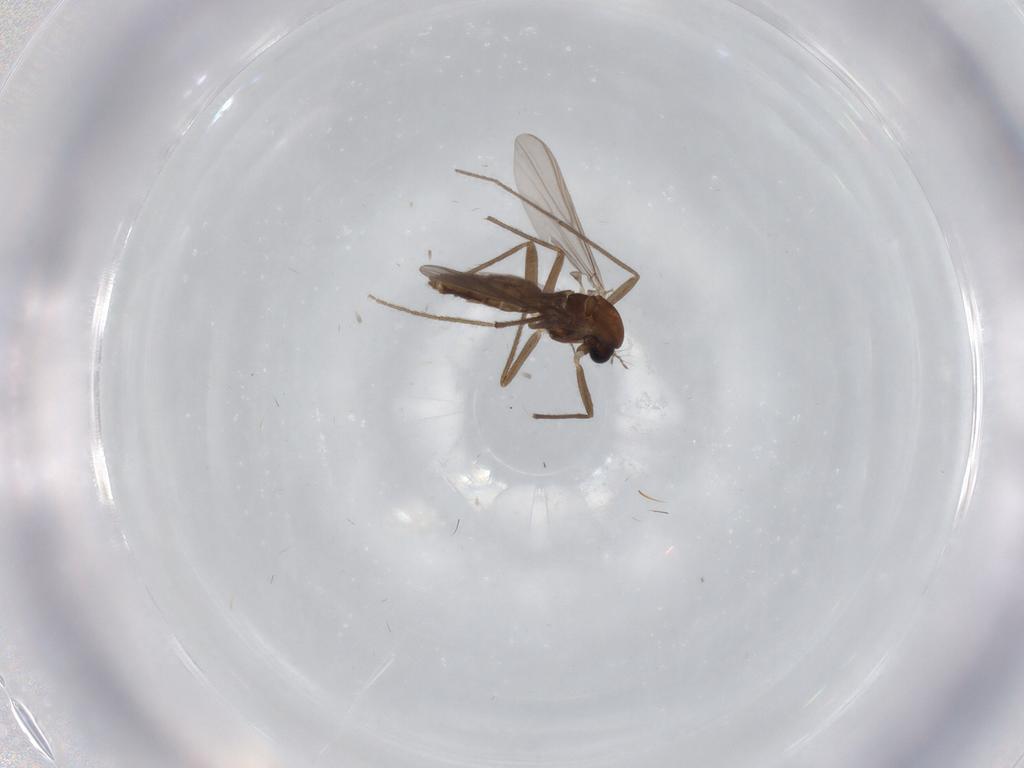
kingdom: Animalia
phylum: Arthropoda
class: Insecta
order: Diptera
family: Chironomidae
